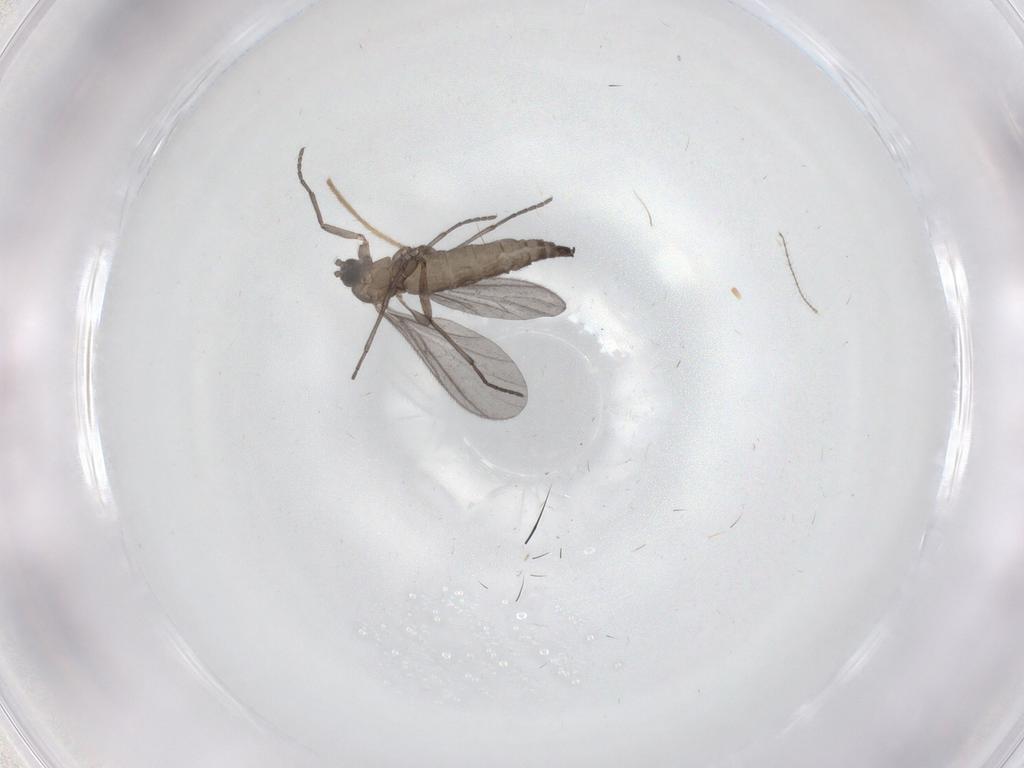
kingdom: Animalia
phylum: Arthropoda
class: Insecta
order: Diptera
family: Sciaridae
